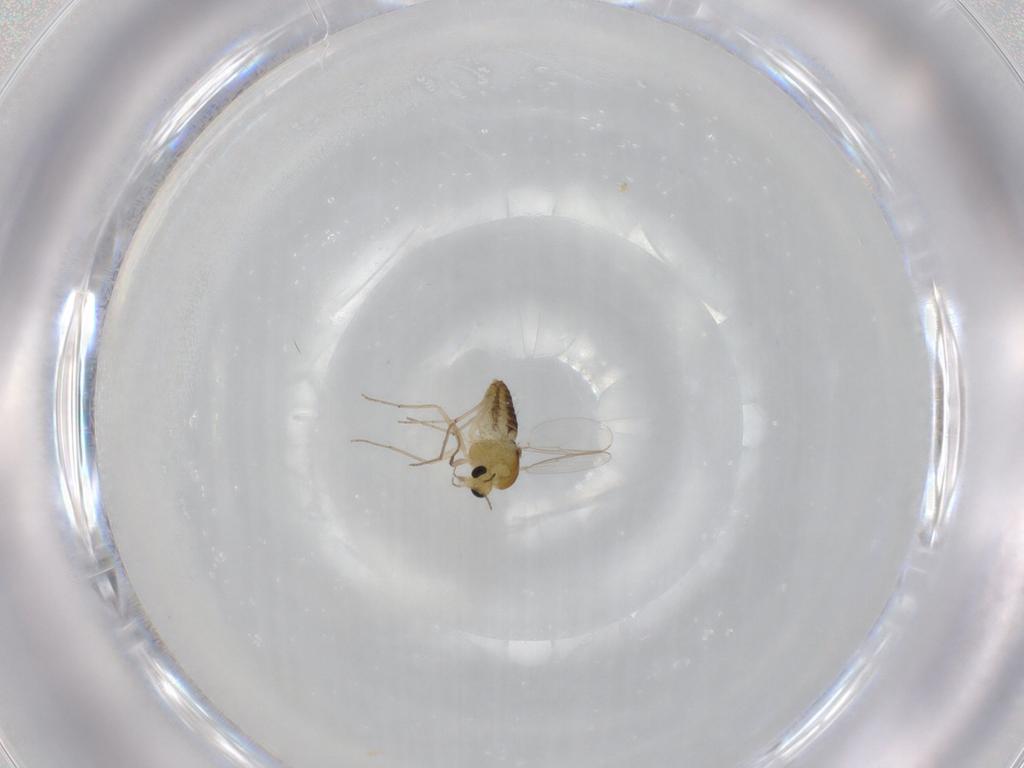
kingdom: Animalia
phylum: Arthropoda
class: Insecta
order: Diptera
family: Chironomidae
